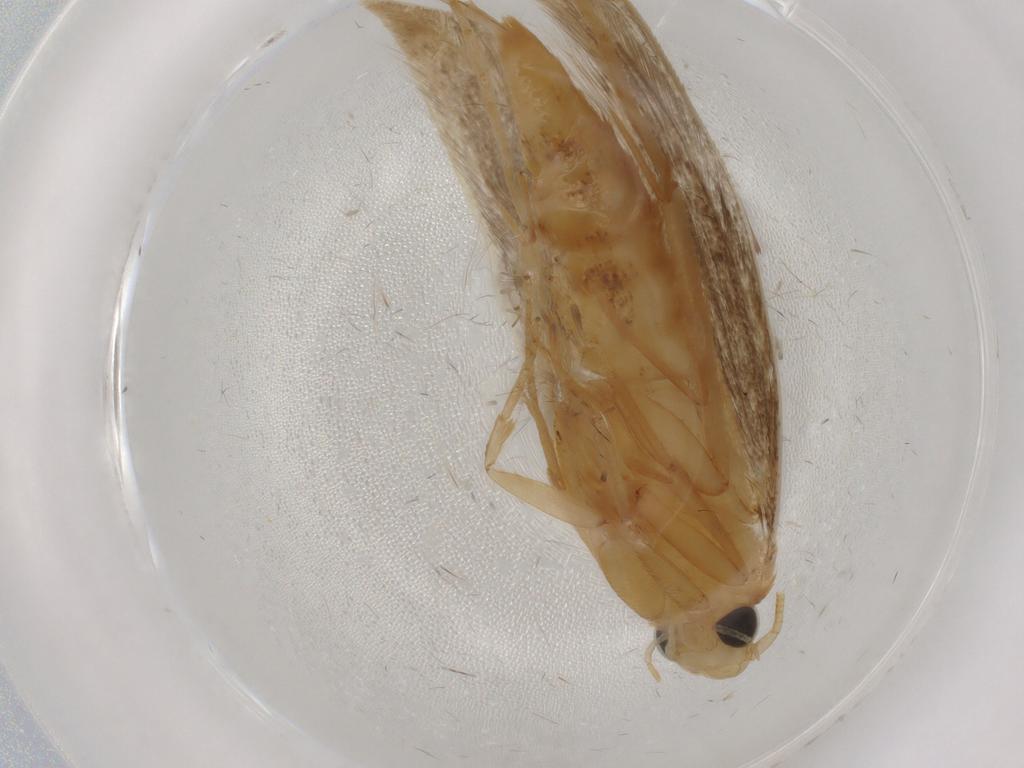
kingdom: Animalia
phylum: Arthropoda
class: Insecta
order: Lepidoptera
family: Tineidae
